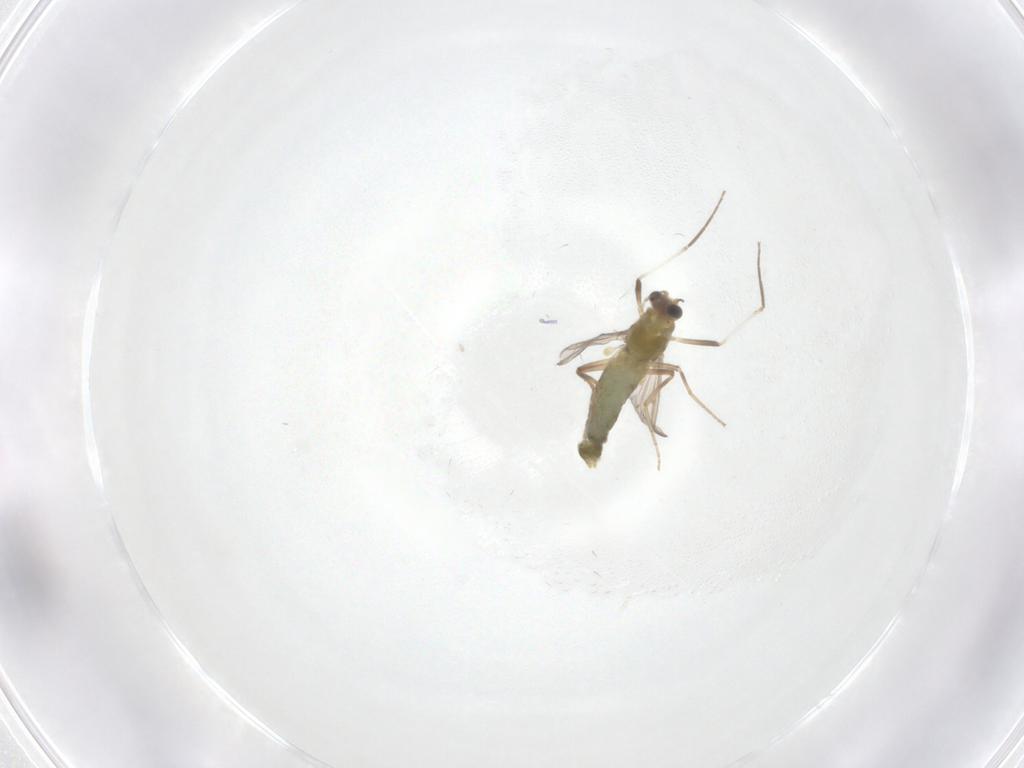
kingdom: Animalia
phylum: Arthropoda
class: Insecta
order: Diptera
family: Chironomidae
